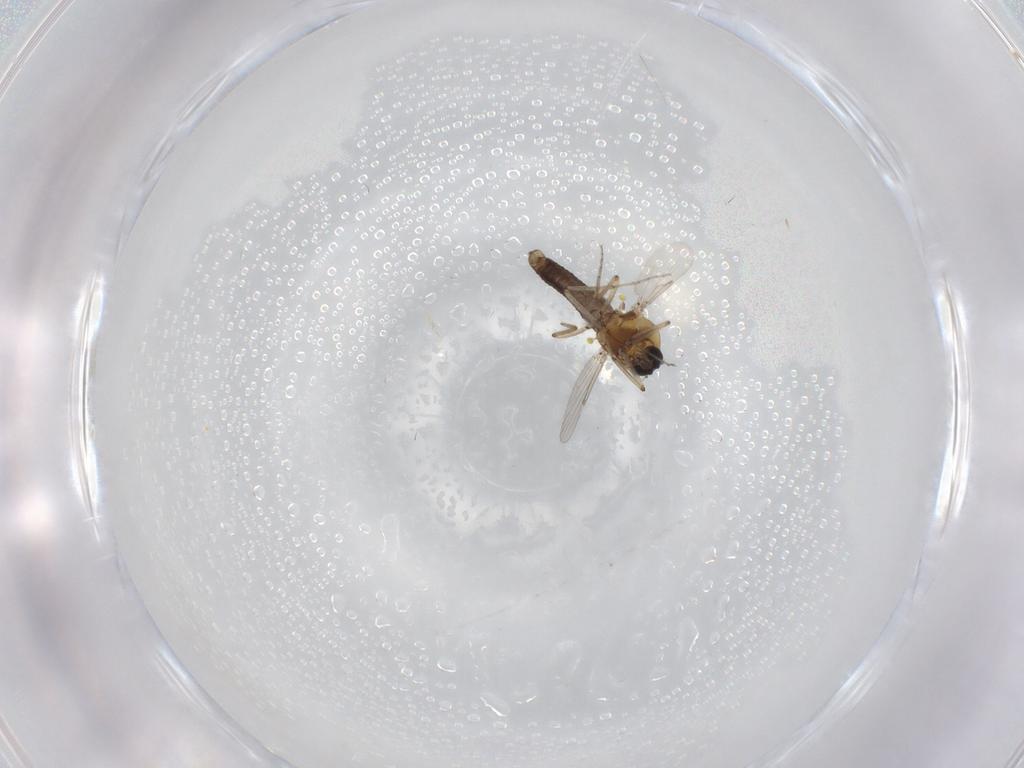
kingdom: Animalia
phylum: Arthropoda
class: Insecta
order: Diptera
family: Ceratopogonidae
